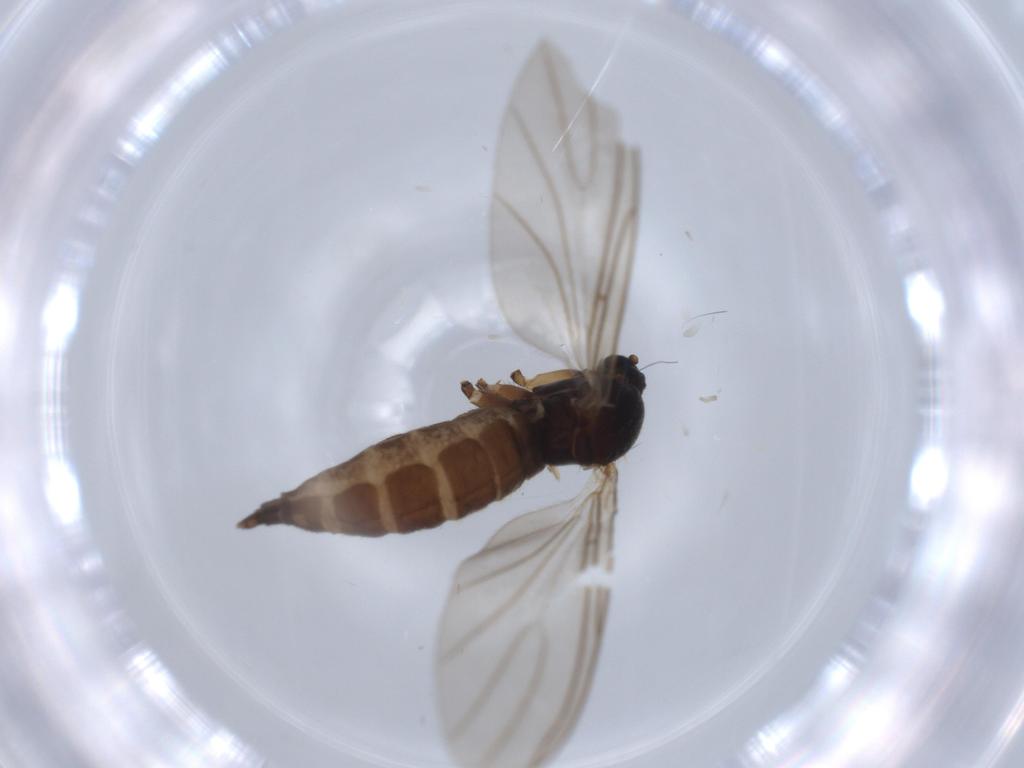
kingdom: Animalia
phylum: Arthropoda
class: Insecta
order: Diptera
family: Sciaridae
